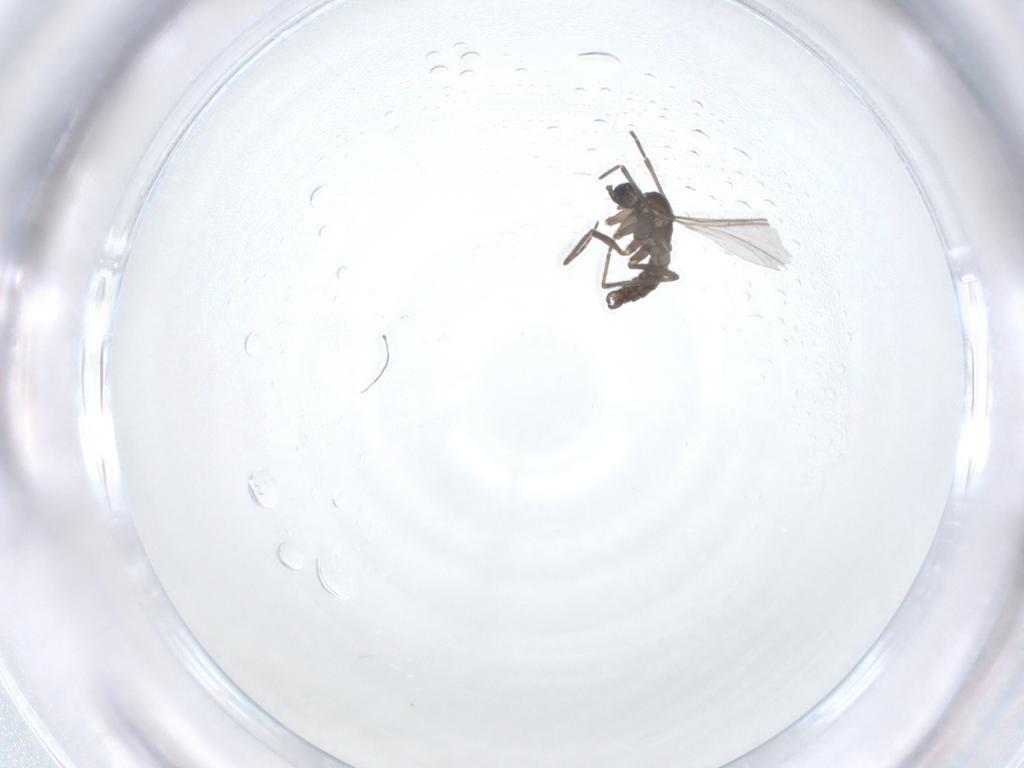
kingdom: Animalia
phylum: Arthropoda
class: Insecta
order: Diptera
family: Sciaridae
